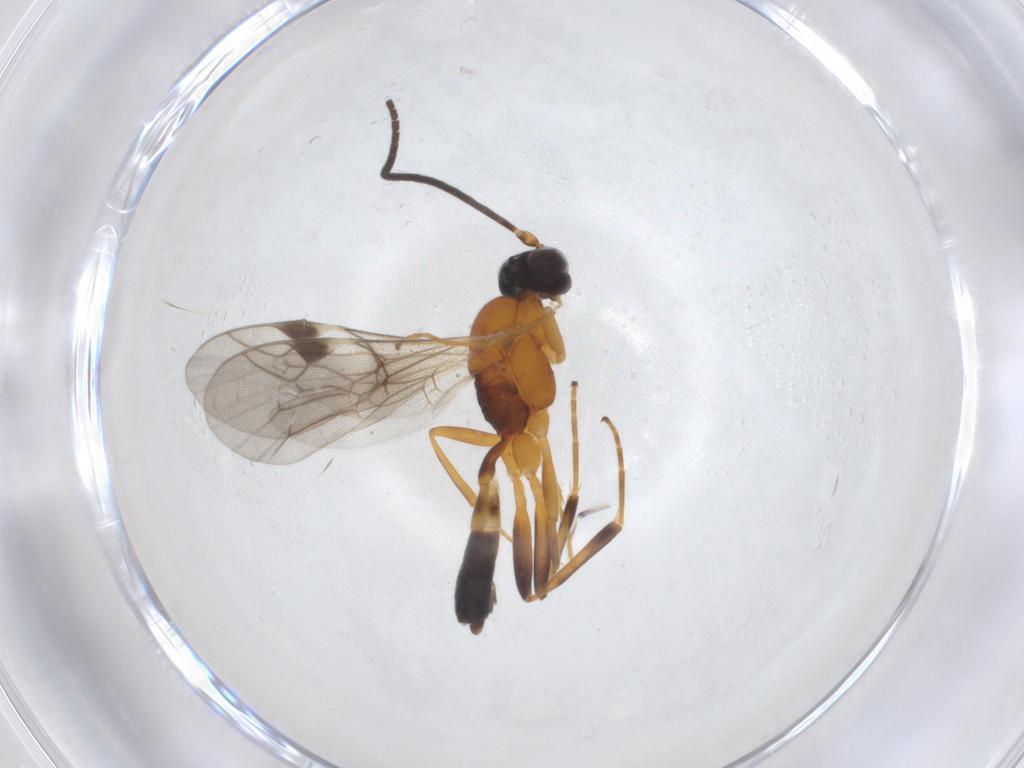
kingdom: Animalia
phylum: Arthropoda
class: Insecta
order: Hymenoptera
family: Ichneumonidae
